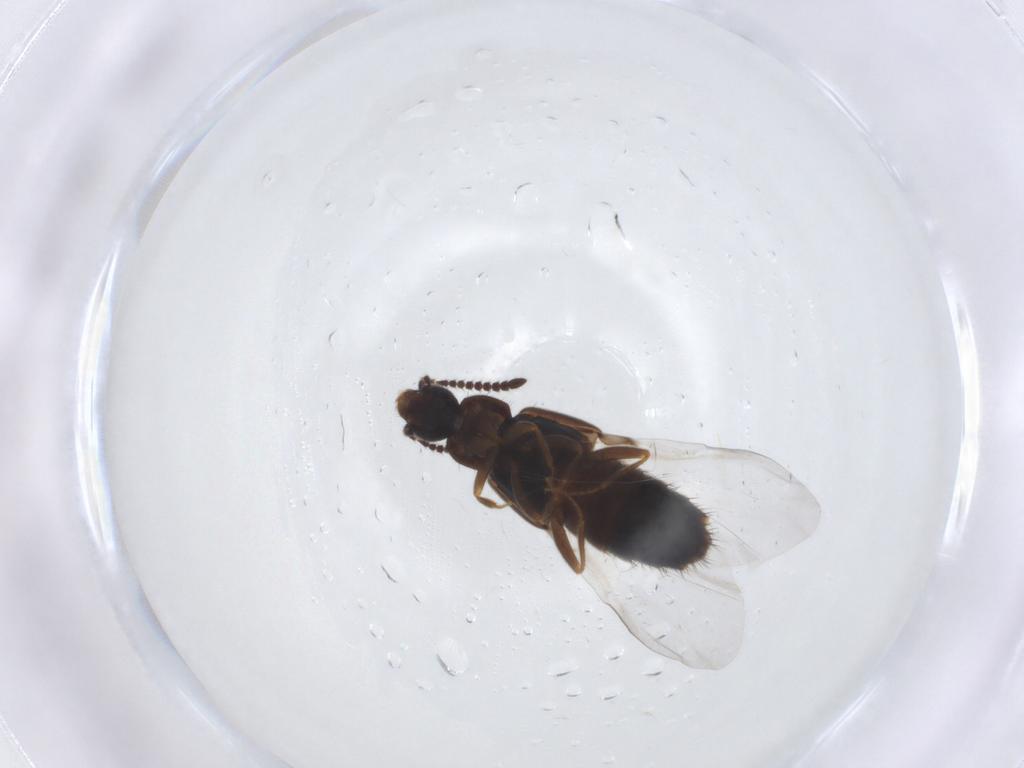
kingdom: Animalia
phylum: Arthropoda
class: Insecta
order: Coleoptera
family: Staphylinidae
